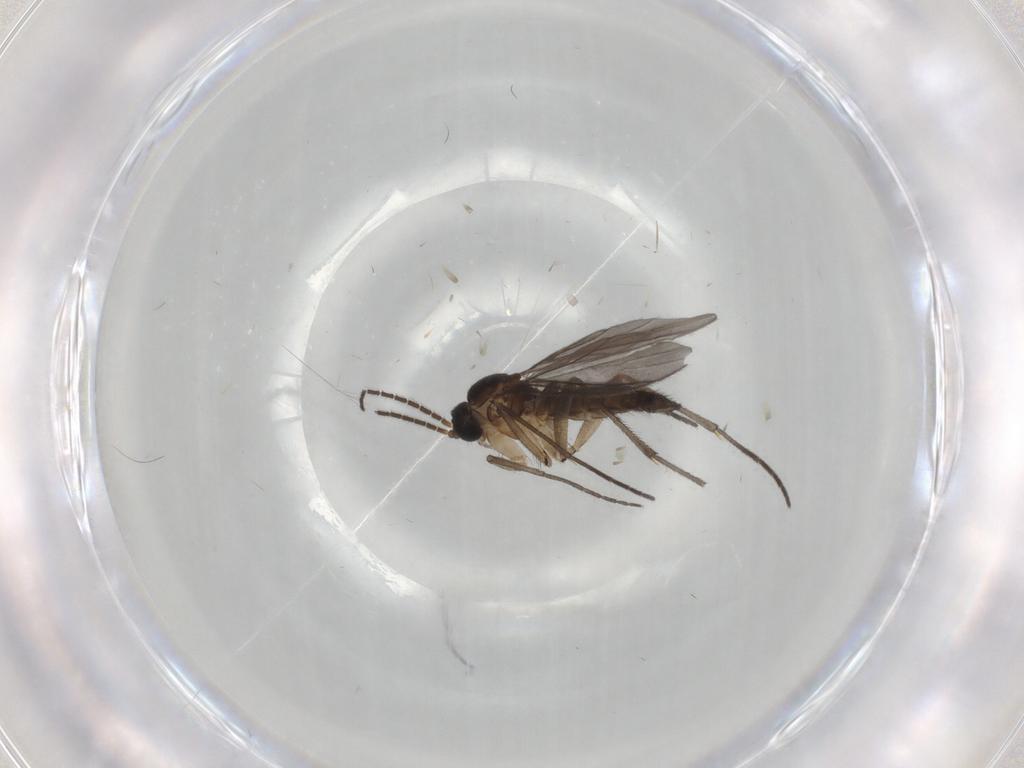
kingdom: Animalia
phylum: Arthropoda
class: Insecta
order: Diptera
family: Sciaridae
